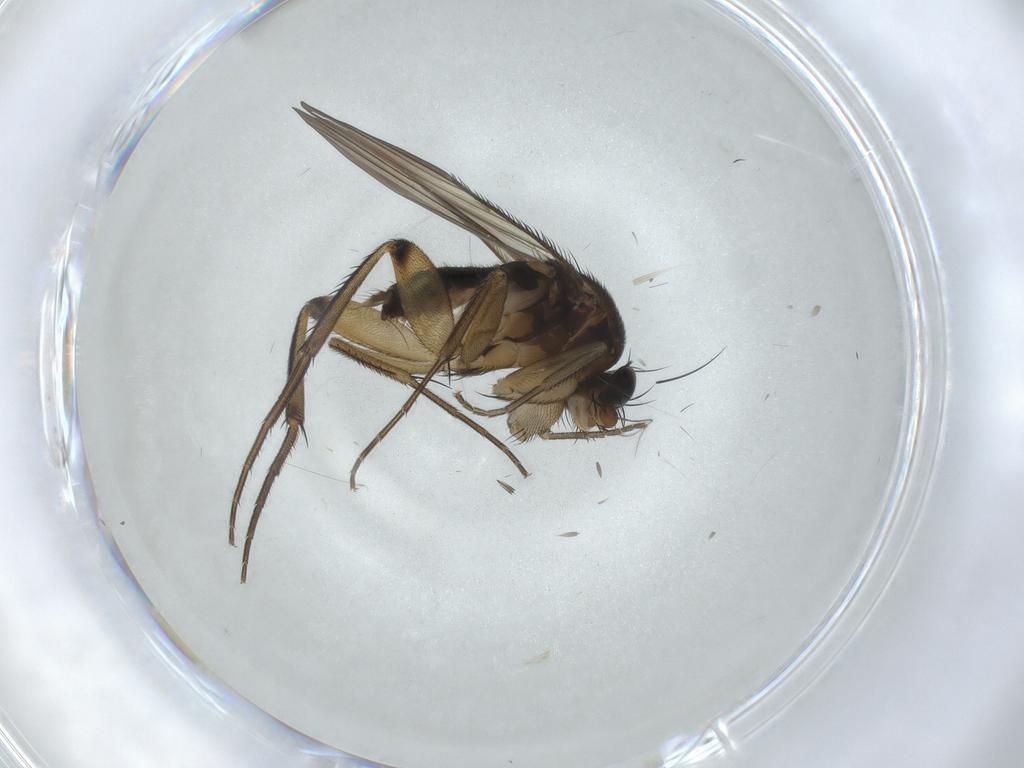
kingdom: Animalia
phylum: Arthropoda
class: Insecta
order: Diptera
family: Phoridae
